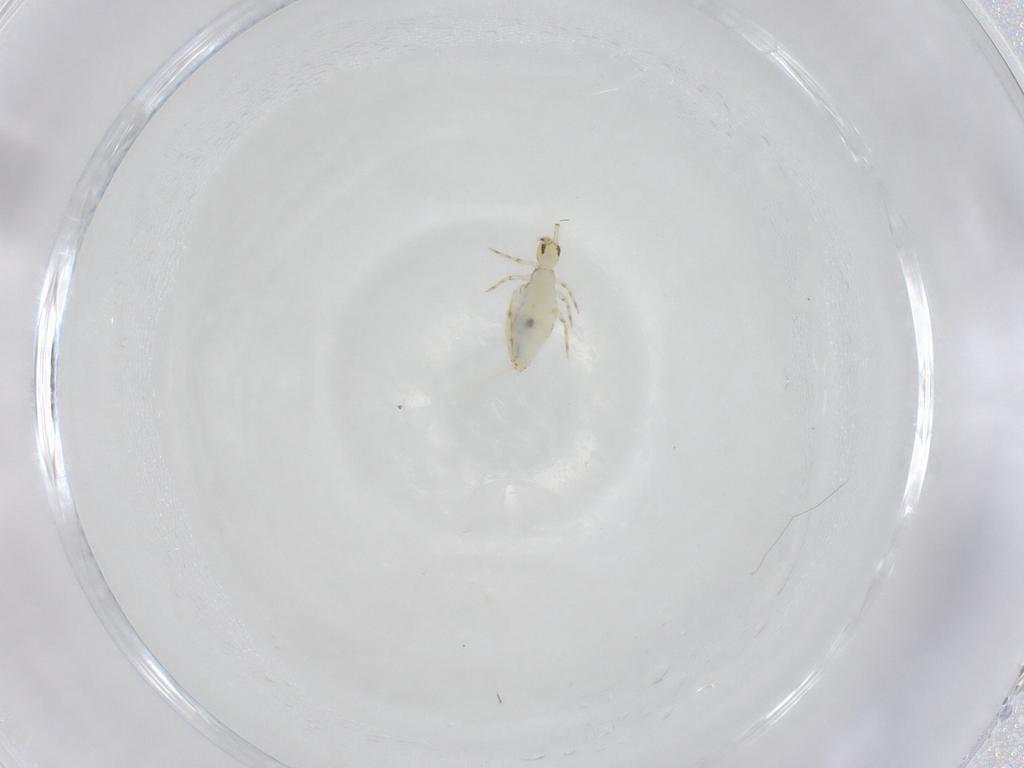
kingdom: Animalia
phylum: Arthropoda
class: Collembola
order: Entomobryomorpha
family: Paronellidae
